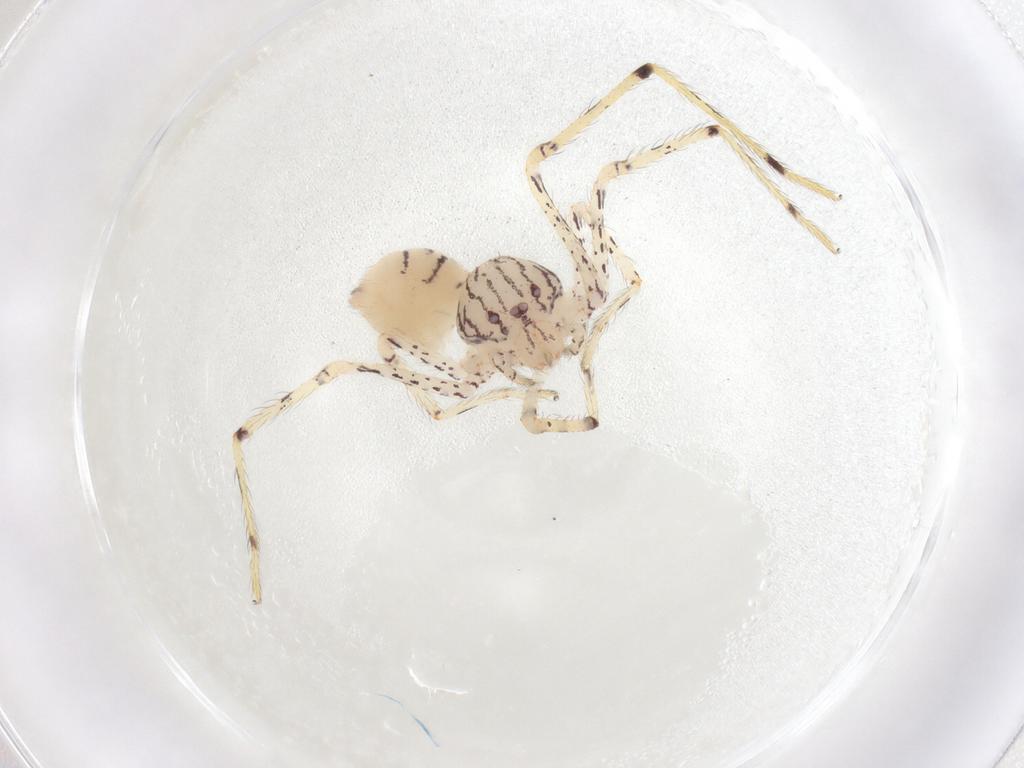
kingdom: Animalia
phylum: Arthropoda
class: Arachnida
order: Araneae
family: Scytodidae
